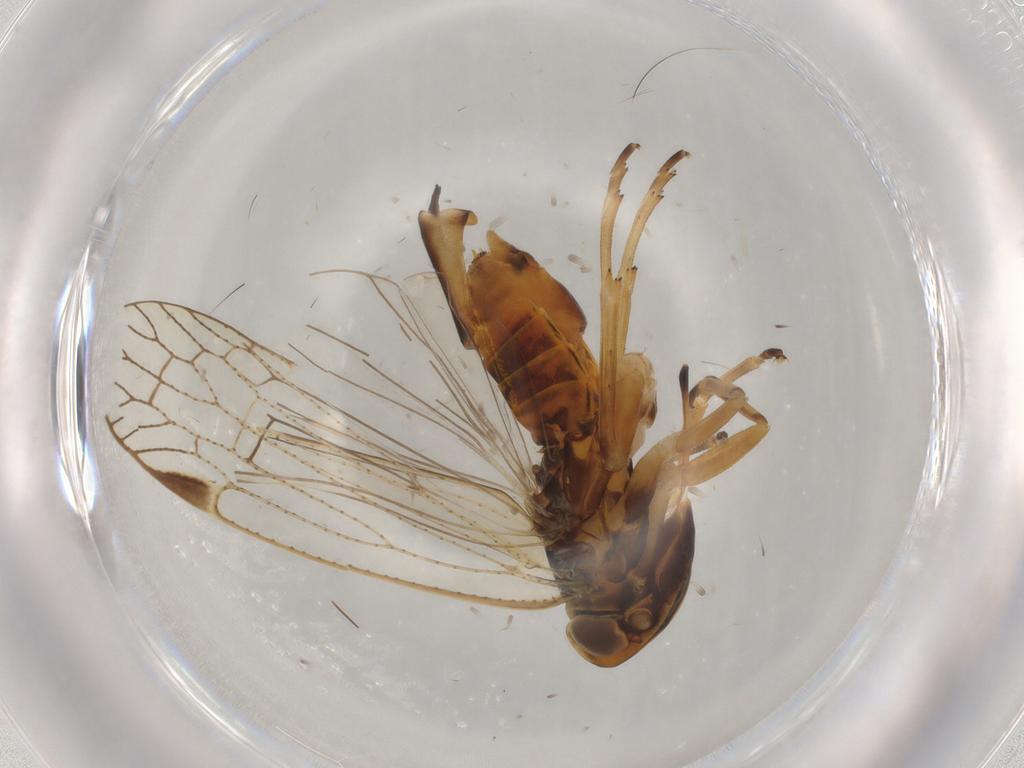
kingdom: Animalia
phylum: Arthropoda
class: Insecta
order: Hemiptera
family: Cixiidae
